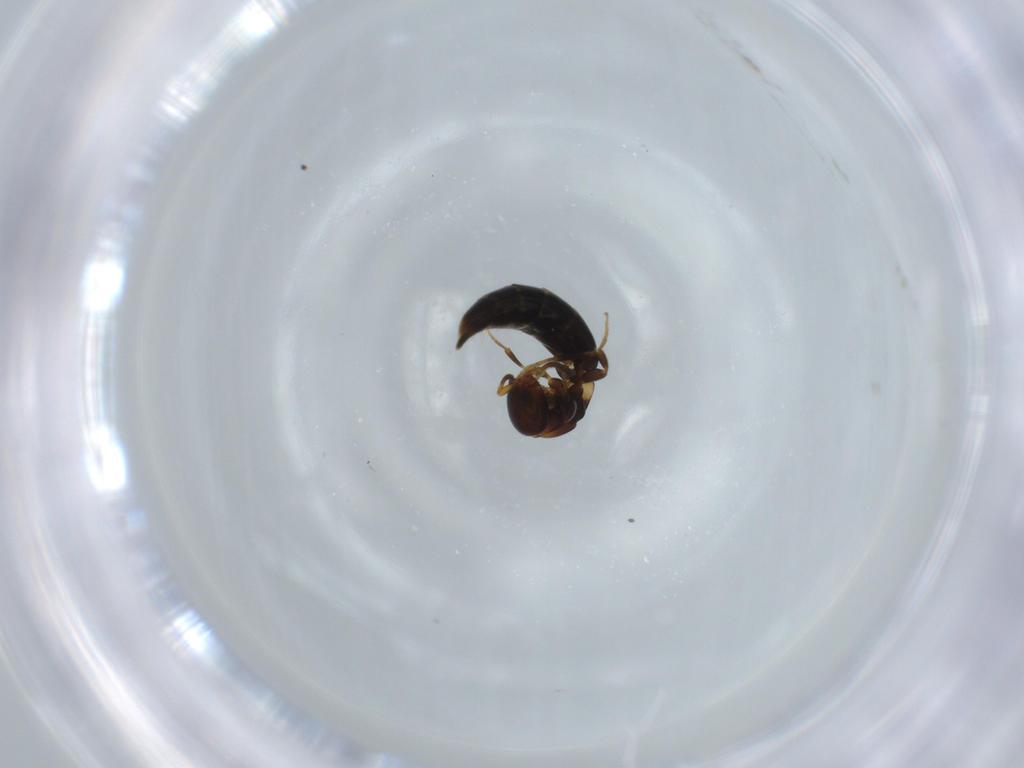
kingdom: Animalia
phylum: Arthropoda
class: Insecta
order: Hymenoptera
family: Bethylidae
